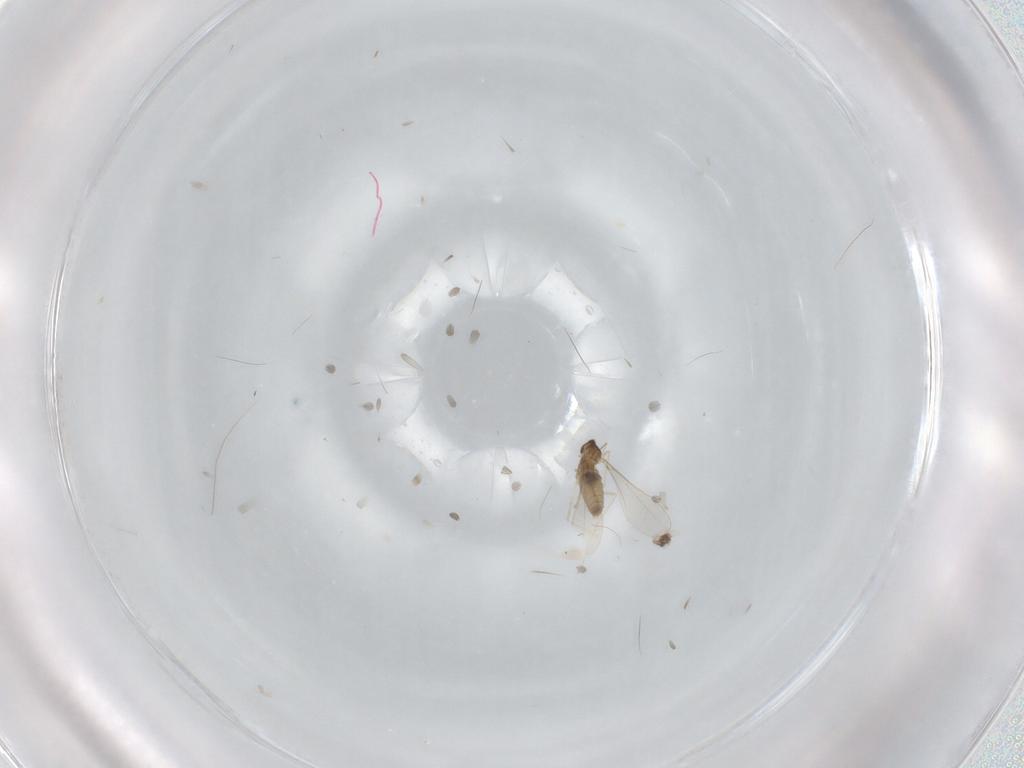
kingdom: Animalia
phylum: Arthropoda
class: Insecta
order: Diptera
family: Cecidomyiidae
